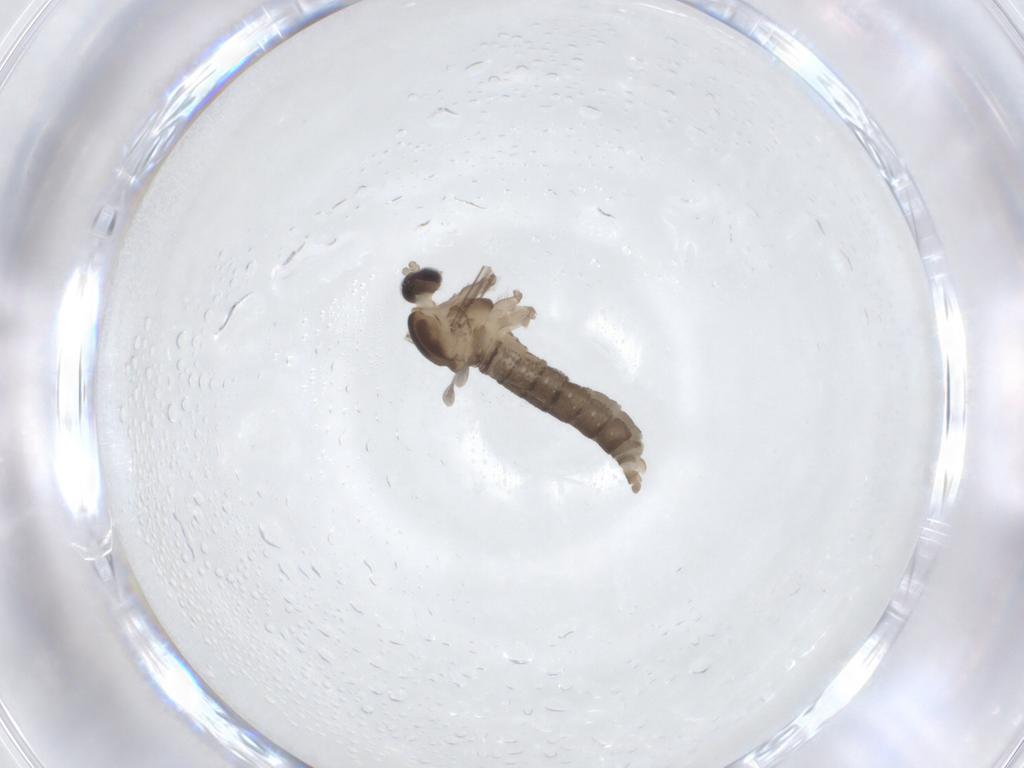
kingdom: Animalia
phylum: Arthropoda
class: Insecta
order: Diptera
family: Cecidomyiidae
